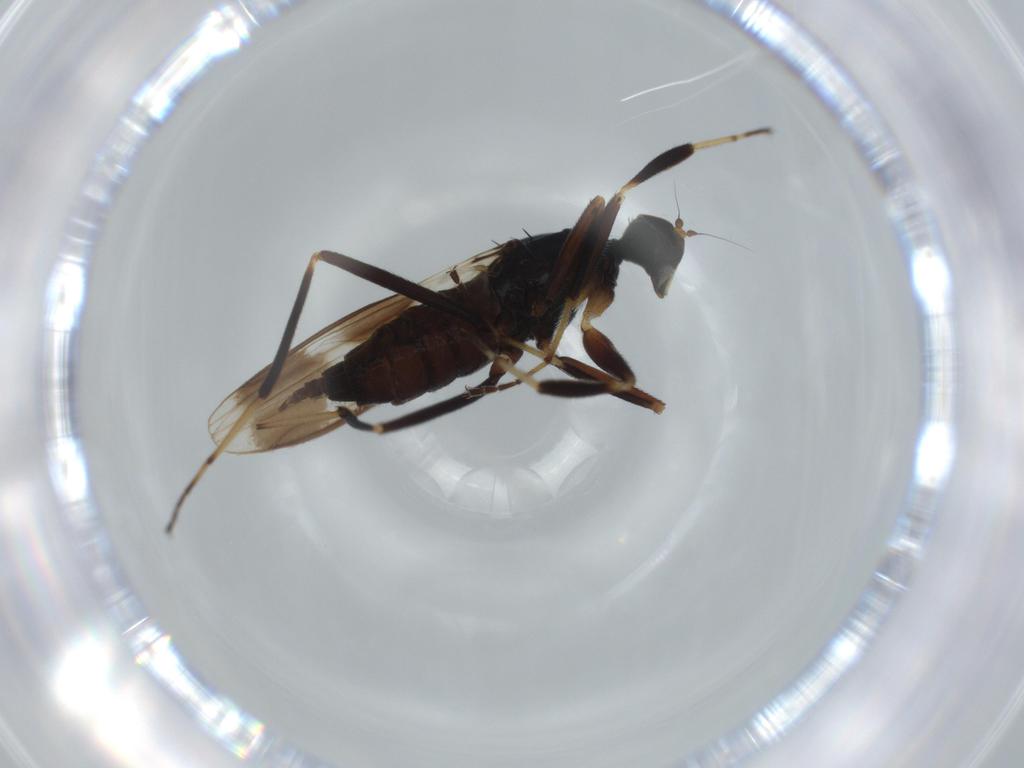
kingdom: Animalia
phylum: Arthropoda
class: Insecta
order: Diptera
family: Hybotidae
